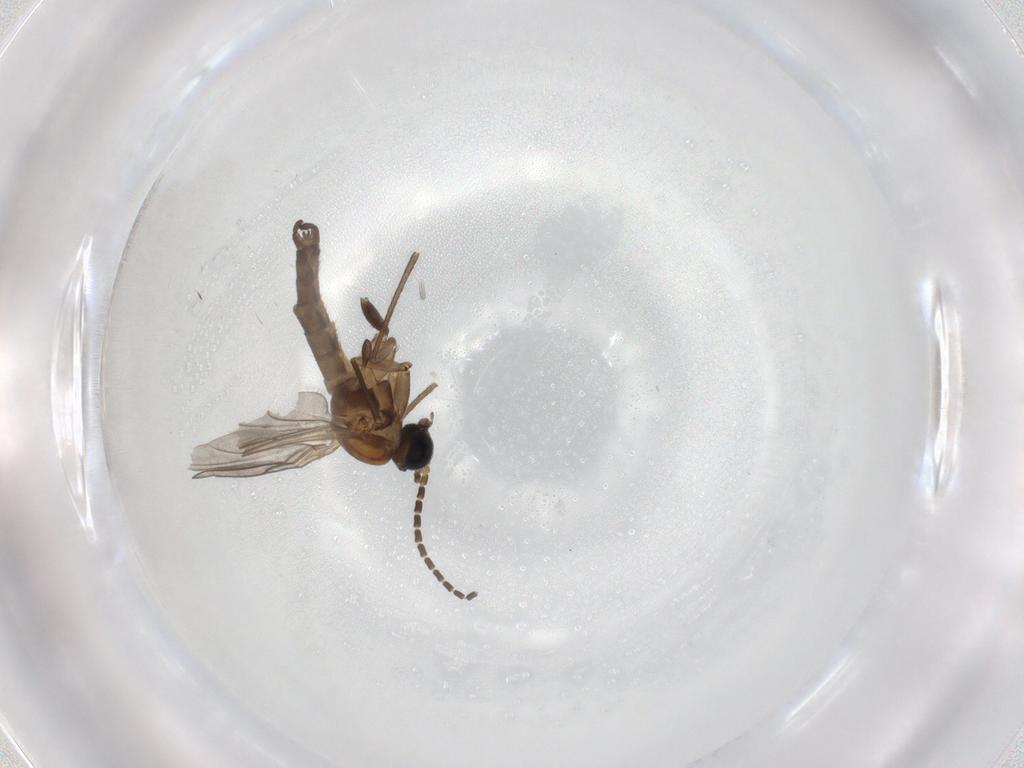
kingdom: Animalia
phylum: Arthropoda
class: Insecta
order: Diptera
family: Sciaridae
